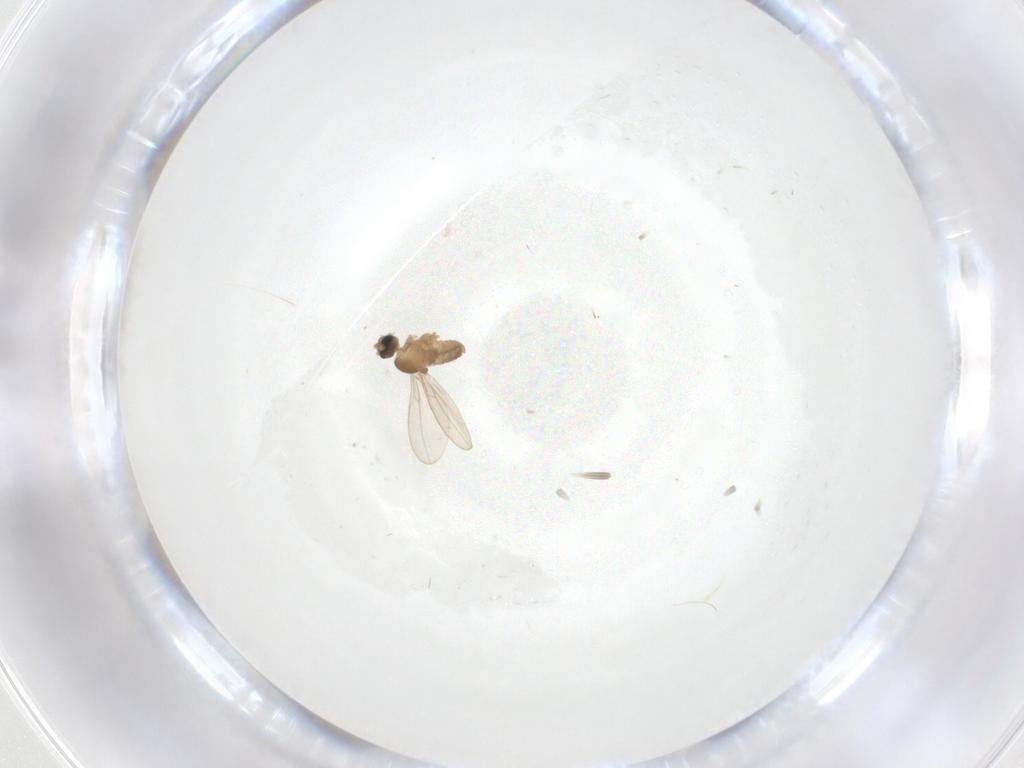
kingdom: Animalia
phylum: Arthropoda
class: Insecta
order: Diptera
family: Cecidomyiidae
